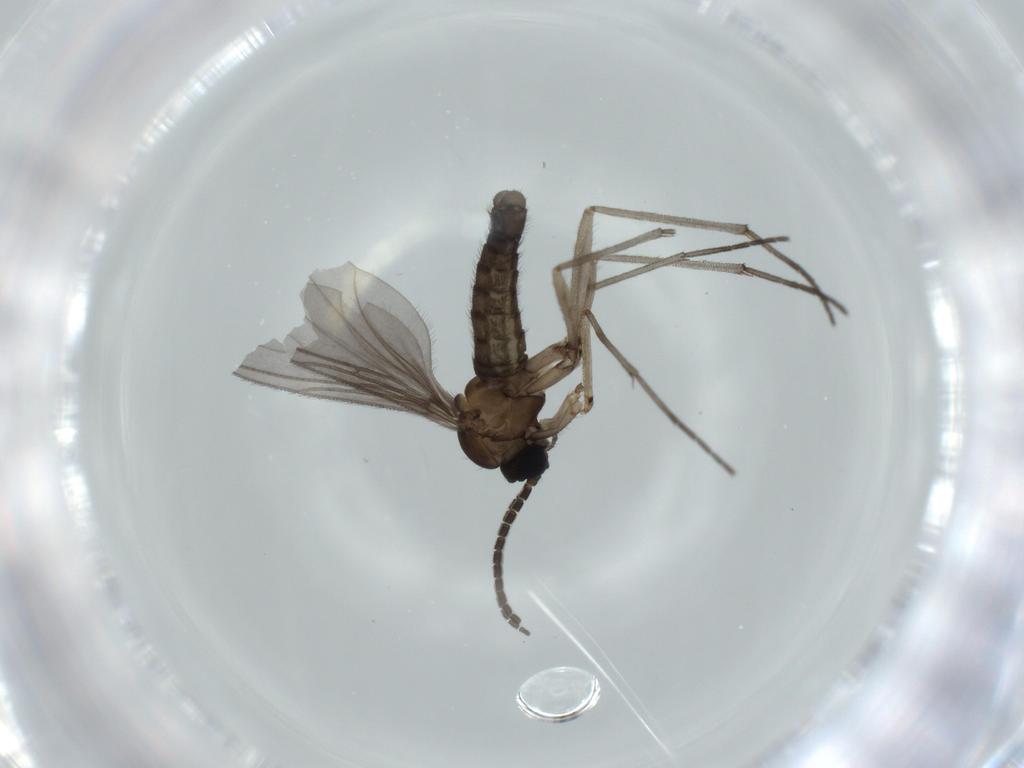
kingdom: Animalia
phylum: Arthropoda
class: Insecta
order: Diptera
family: Sciaridae
